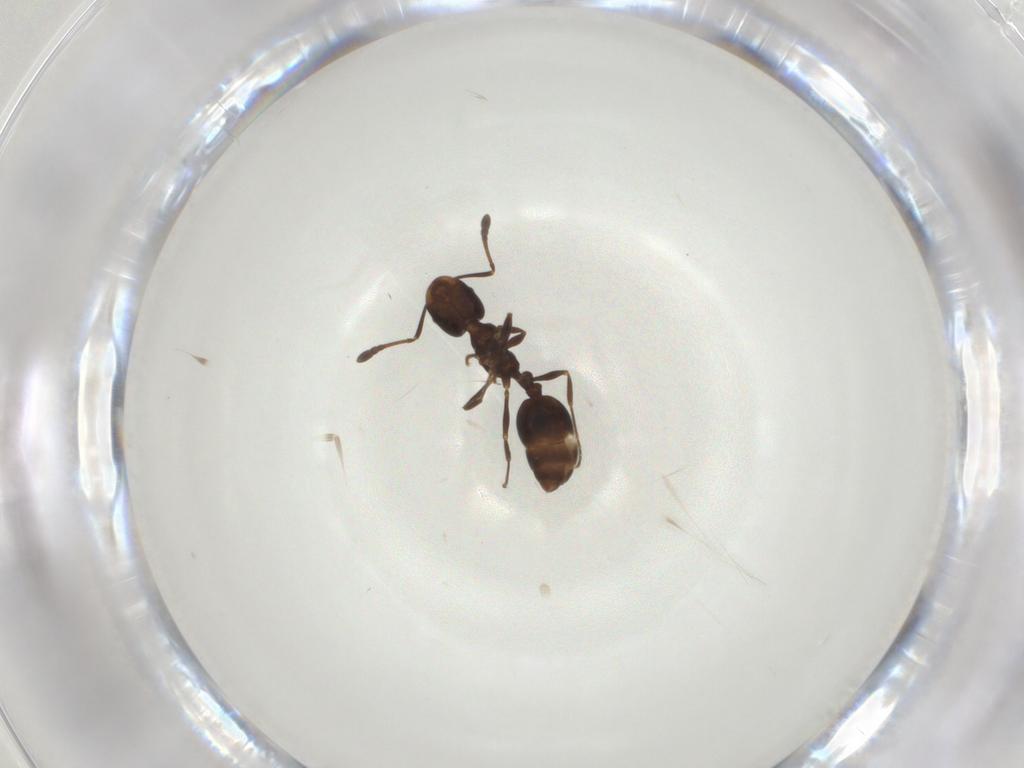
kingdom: Animalia
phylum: Arthropoda
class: Insecta
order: Hymenoptera
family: Formicidae
